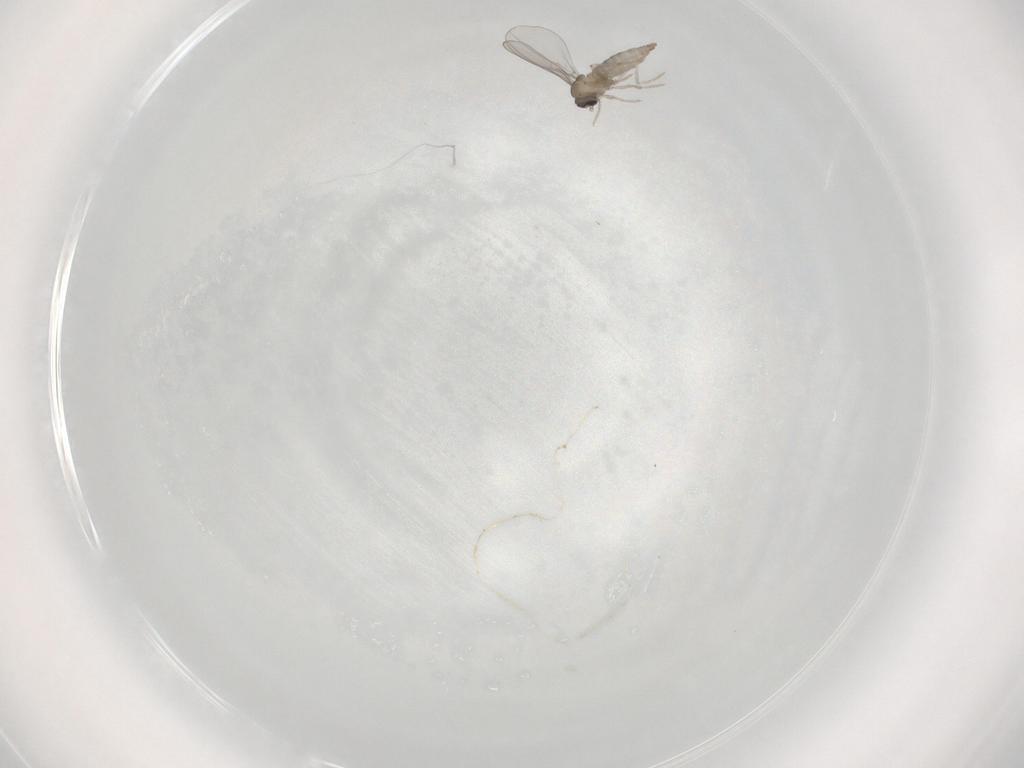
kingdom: Animalia
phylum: Arthropoda
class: Insecta
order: Diptera
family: Cecidomyiidae
